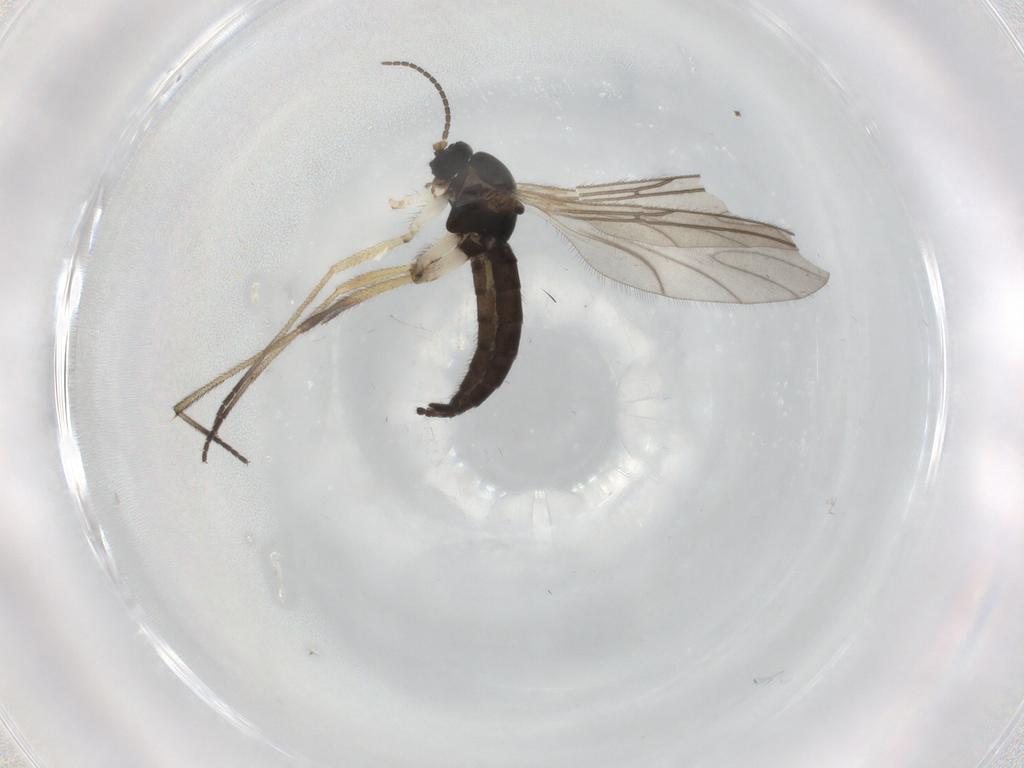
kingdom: Animalia
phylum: Arthropoda
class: Insecta
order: Diptera
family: Sciaridae
